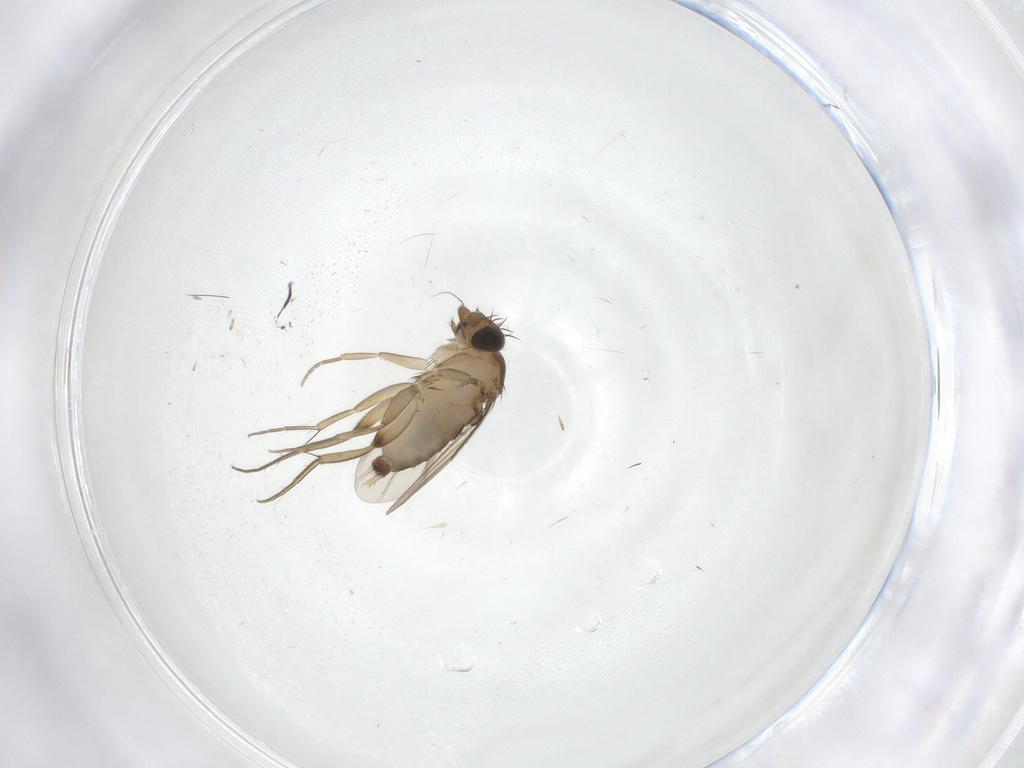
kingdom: Animalia
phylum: Arthropoda
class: Insecta
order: Diptera
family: Phoridae
